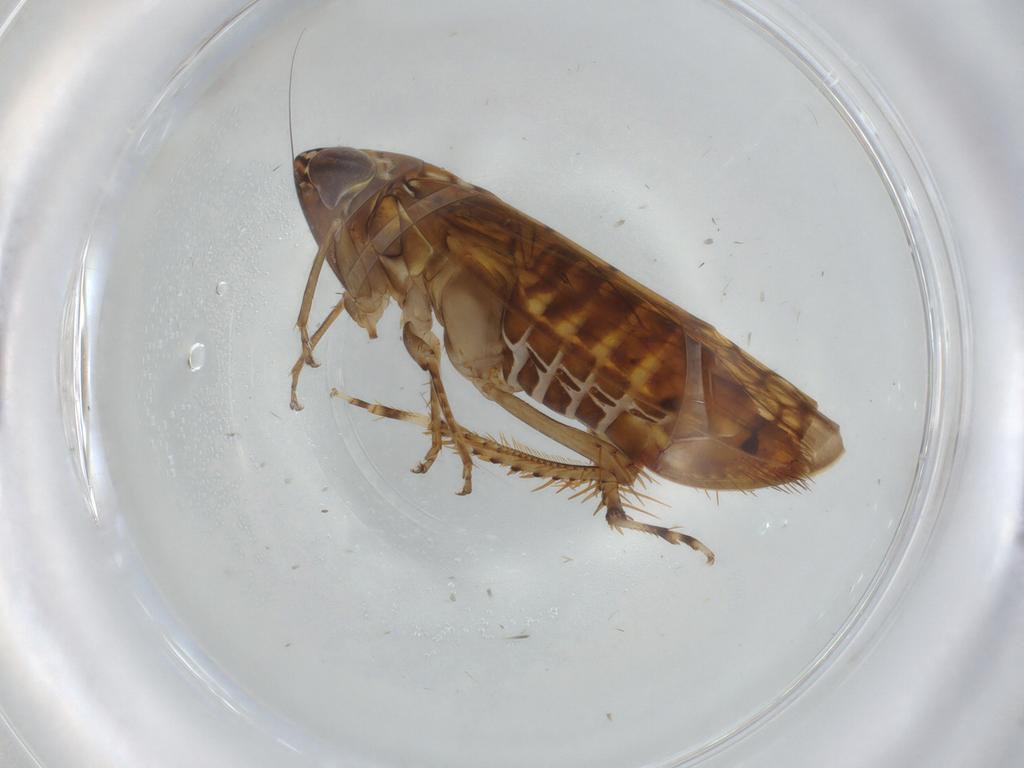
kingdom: Animalia
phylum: Arthropoda
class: Insecta
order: Hemiptera
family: Cicadellidae
